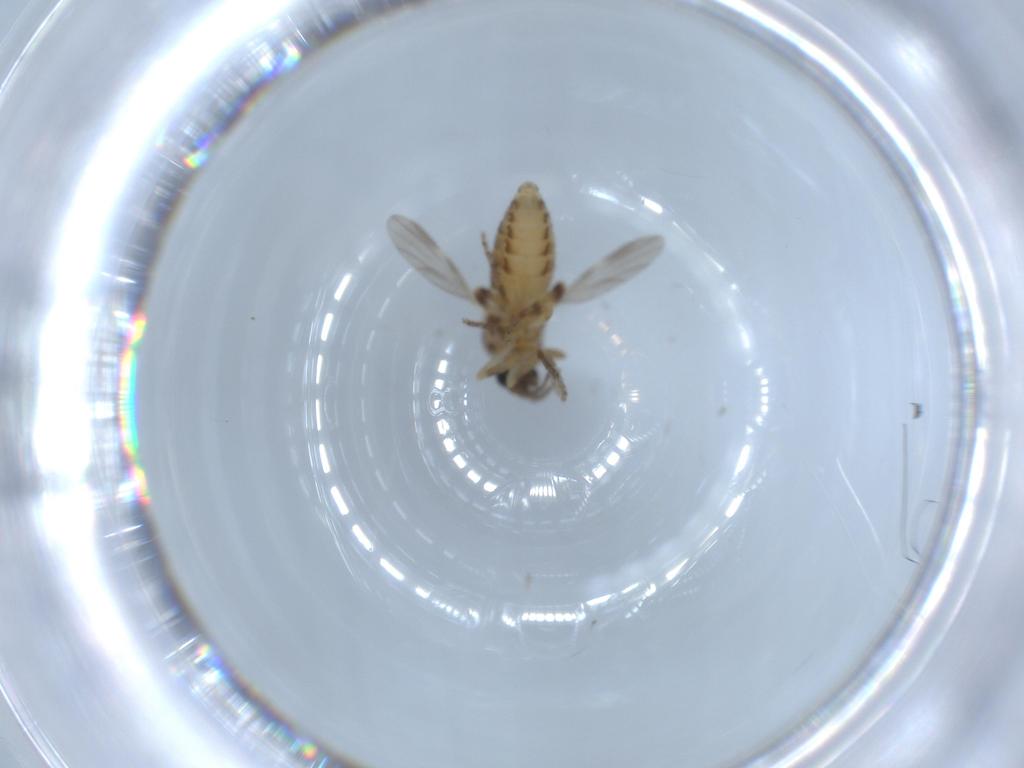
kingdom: Animalia
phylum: Arthropoda
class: Insecta
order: Diptera
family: Ceratopogonidae
